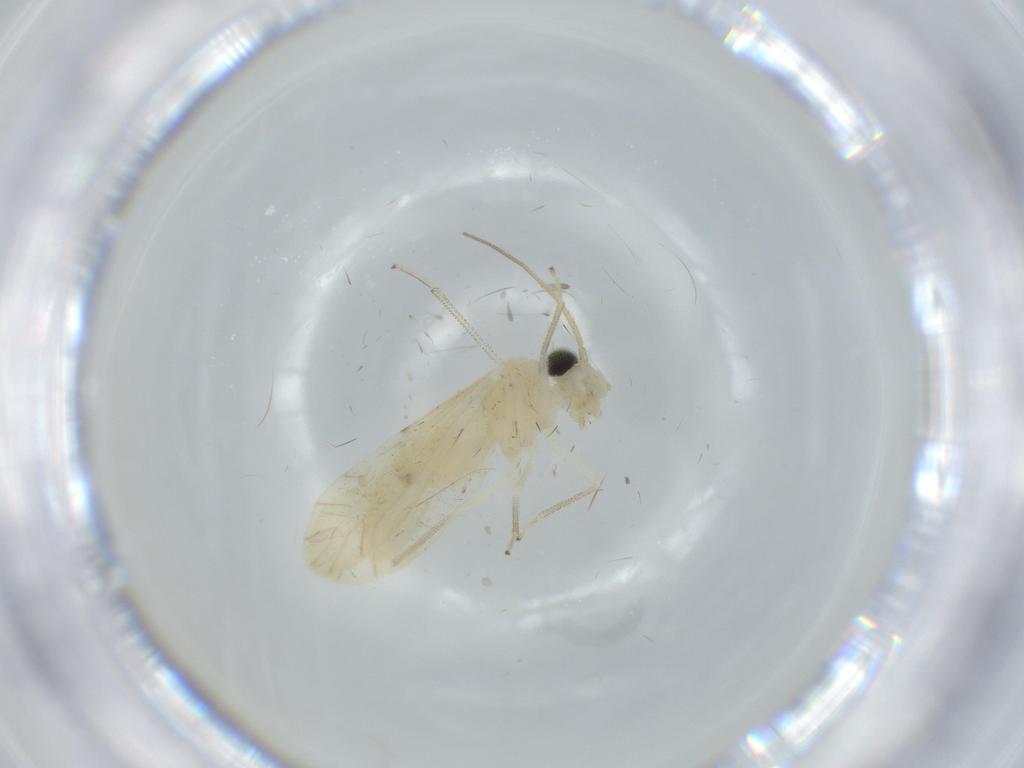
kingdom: Animalia
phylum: Arthropoda
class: Insecta
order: Psocodea
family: Caeciliusidae
